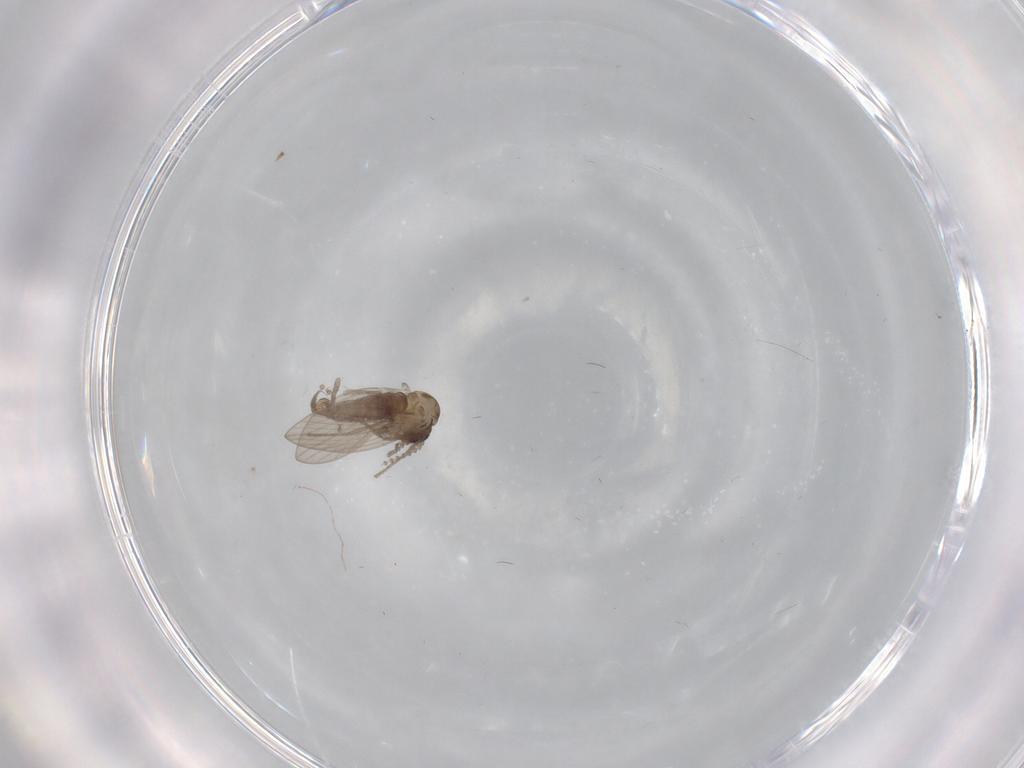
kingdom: Animalia
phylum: Arthropoda
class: Insecta
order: Diptera
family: Psychodidae
